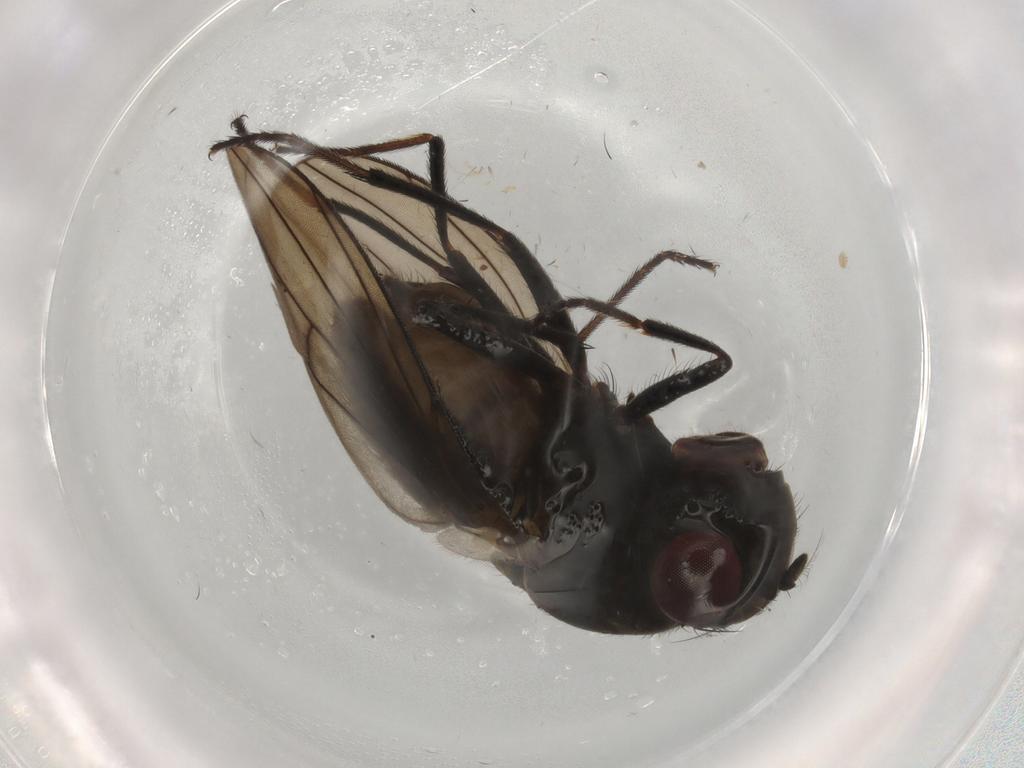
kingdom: Animalia
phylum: Arthropoda
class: Insecta
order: Diptera
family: Ephydridae
